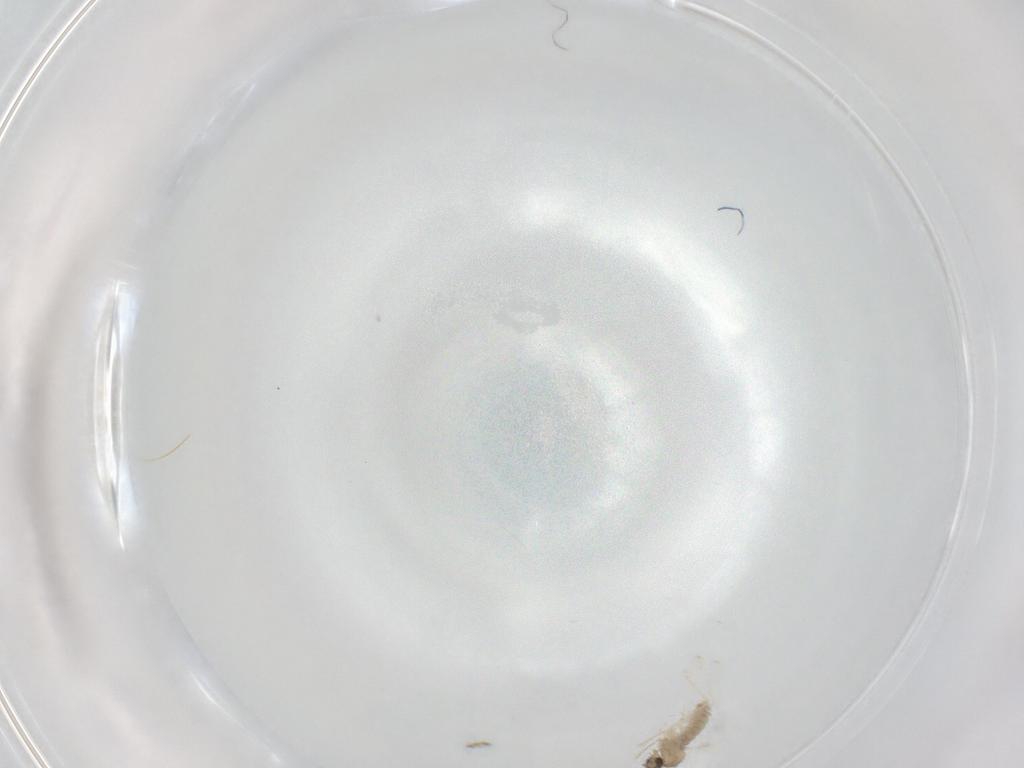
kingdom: Animalia
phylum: Arthropoda
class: Insecta
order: Diptera
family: Cecidomyiidae
